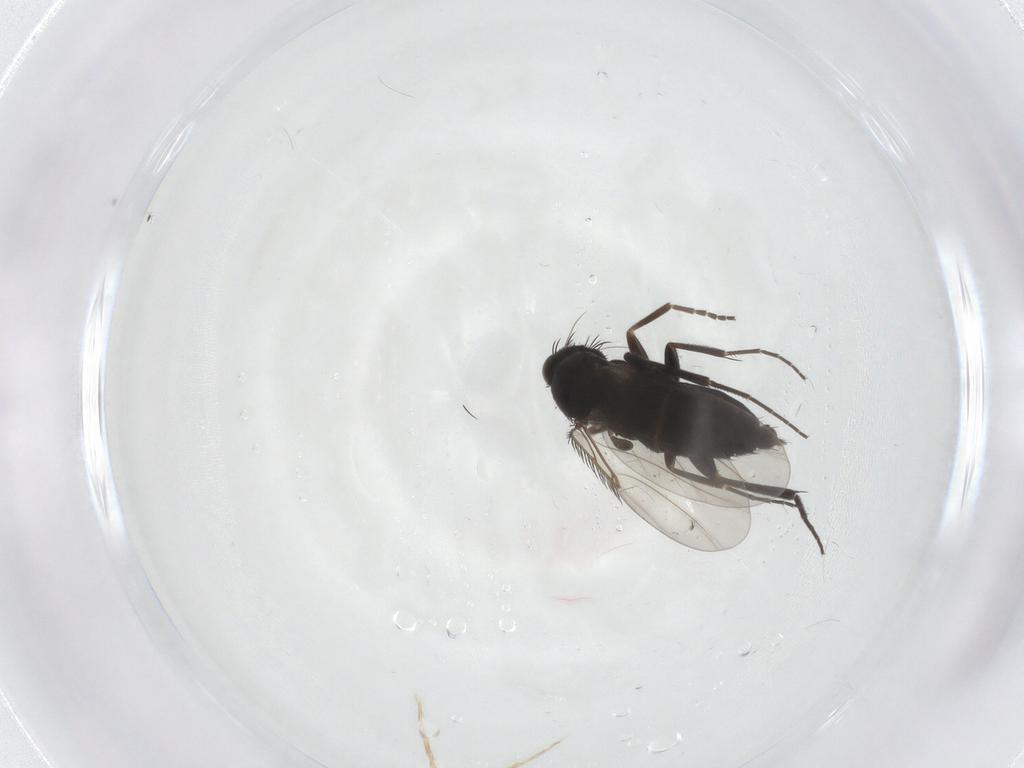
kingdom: Animalia
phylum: Arthropoda
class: Insecta
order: Diptera
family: Phoridae
